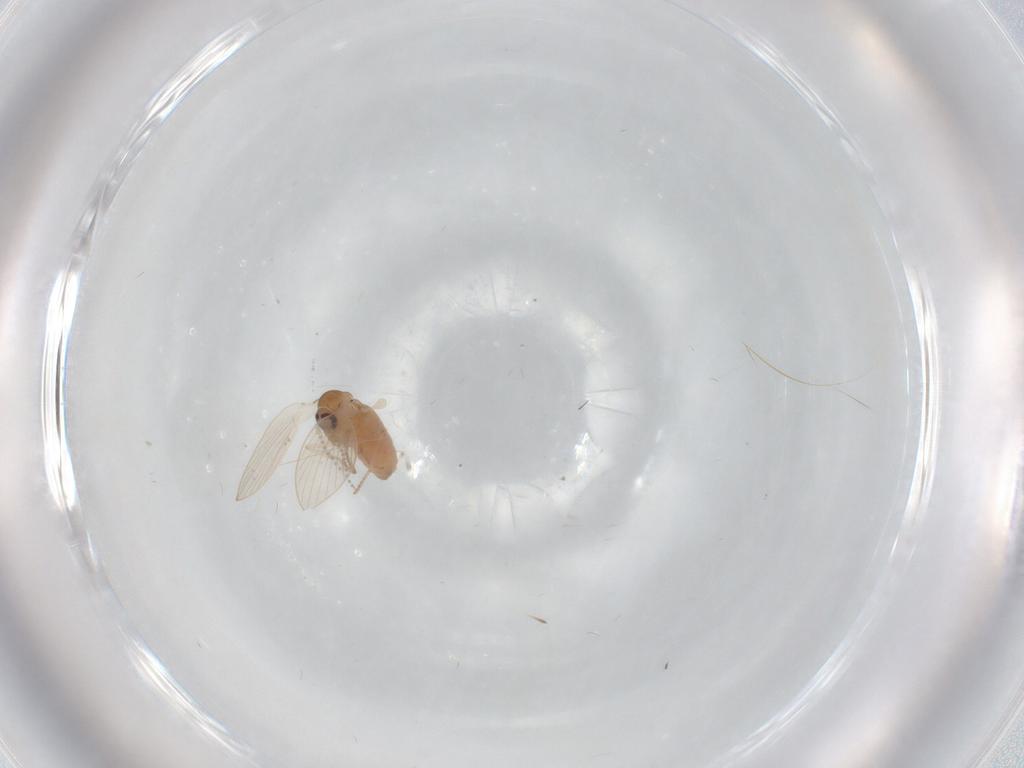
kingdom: Animalia
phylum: Arthropoda
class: Insecta
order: Diptera
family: Psychodidae
